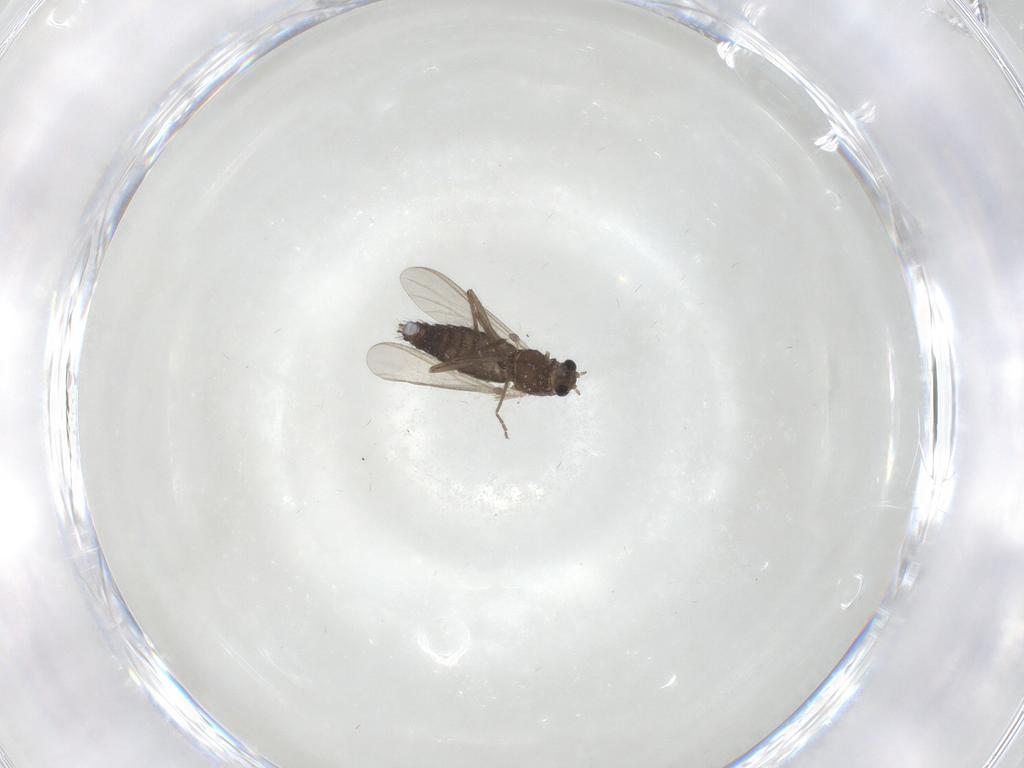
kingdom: Animalia
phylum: Arthropoda
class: Insecta
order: Diptera
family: Chironomidae
